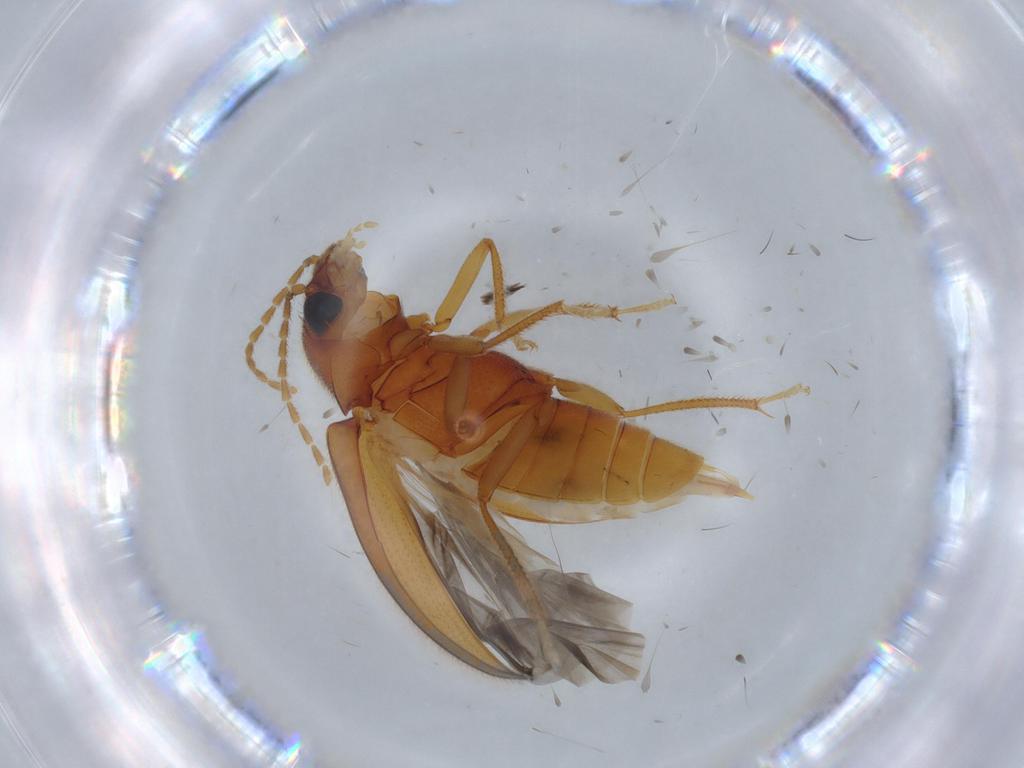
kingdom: Animalia
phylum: Arthropoda
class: Insecta
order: Coleoptera
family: Ptilodactylidae
